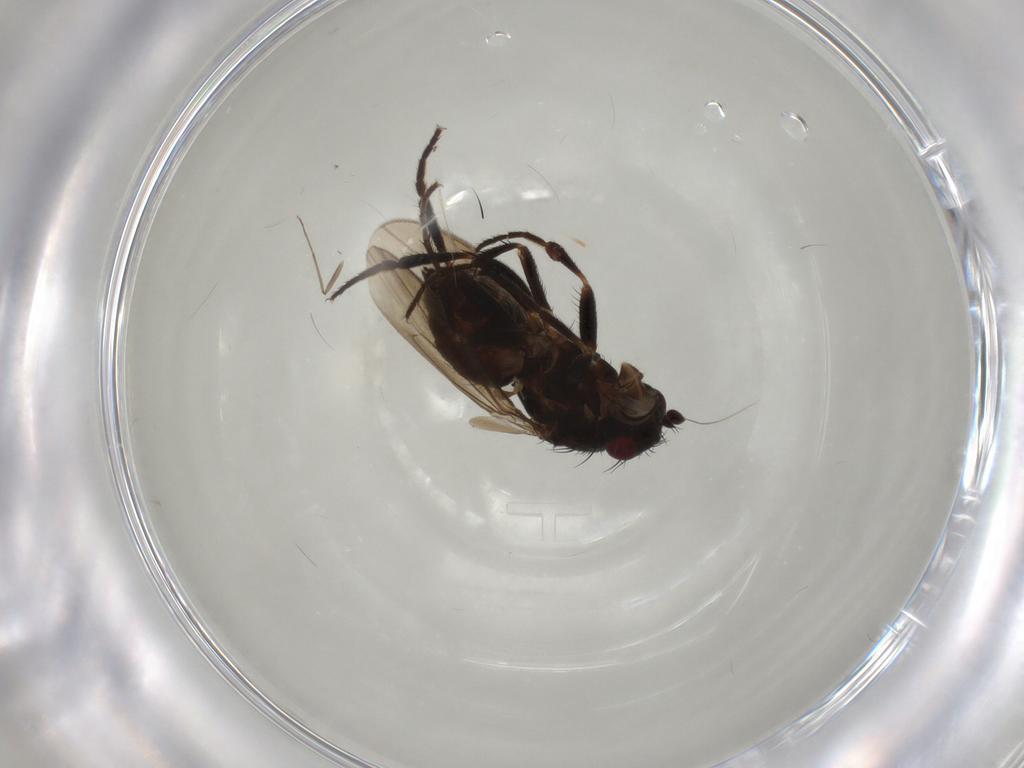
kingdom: Animalia
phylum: Arthropoda
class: Insecta
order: Diptera
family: Sphaeroceridae
